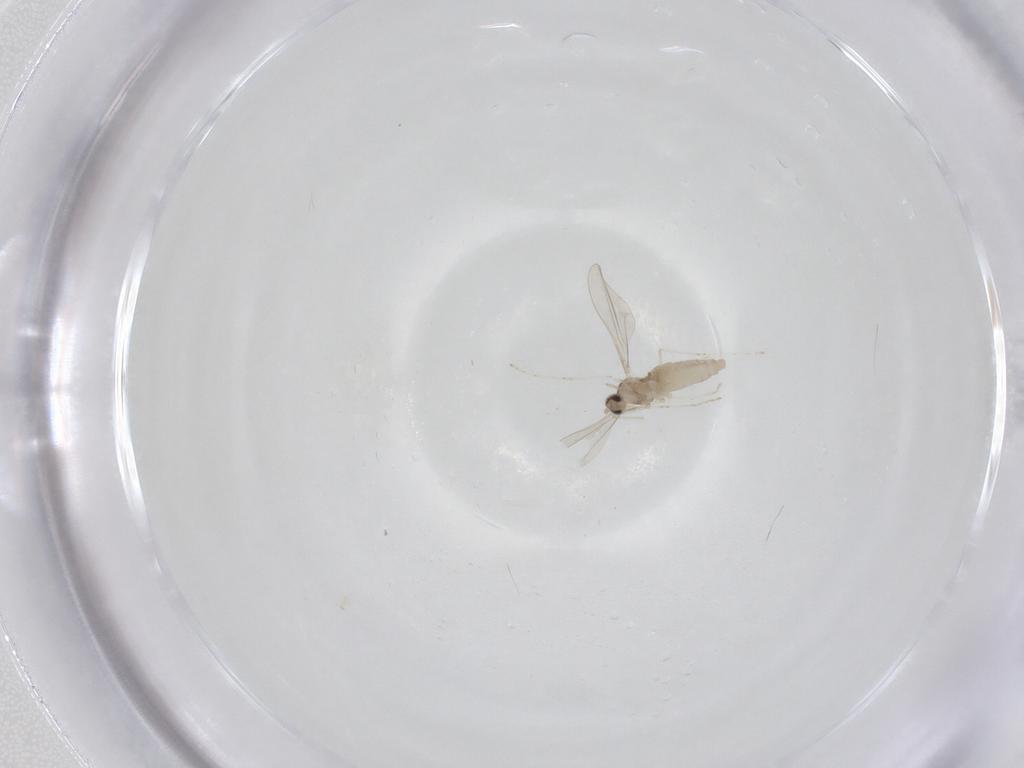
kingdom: Animalia
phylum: Arthropoda
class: Insecta
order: Diptera
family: Cecidomyiidae
